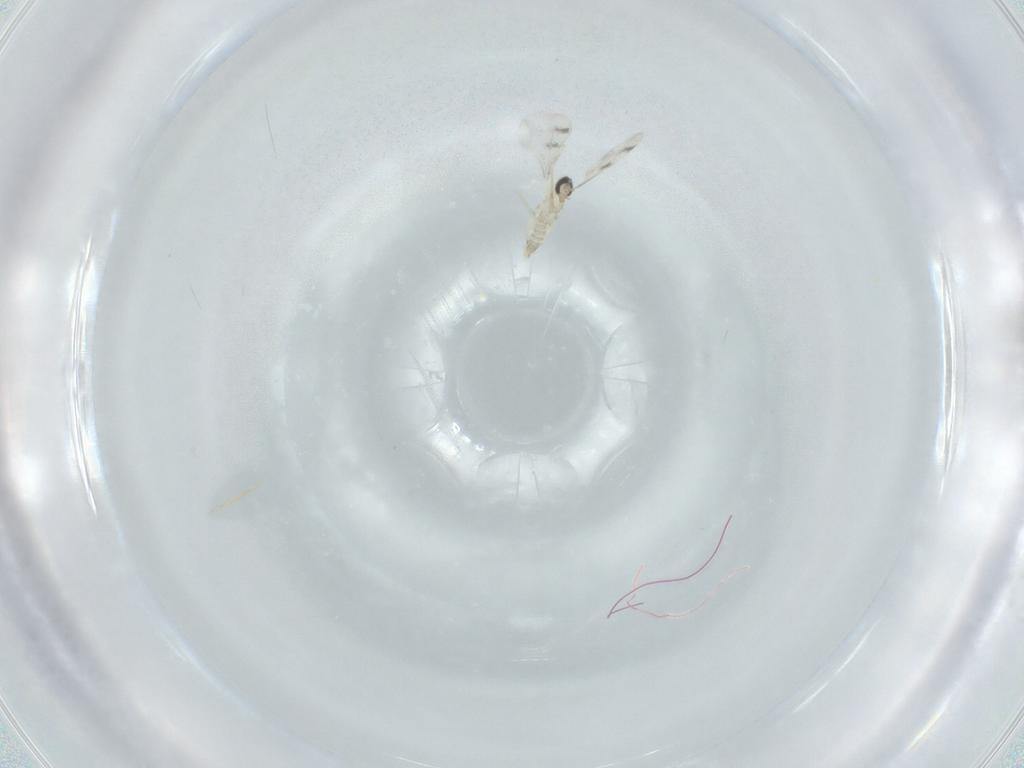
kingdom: Animalia
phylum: Arthropoda
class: Insecta
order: Diptera
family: Cecidomyiidae
